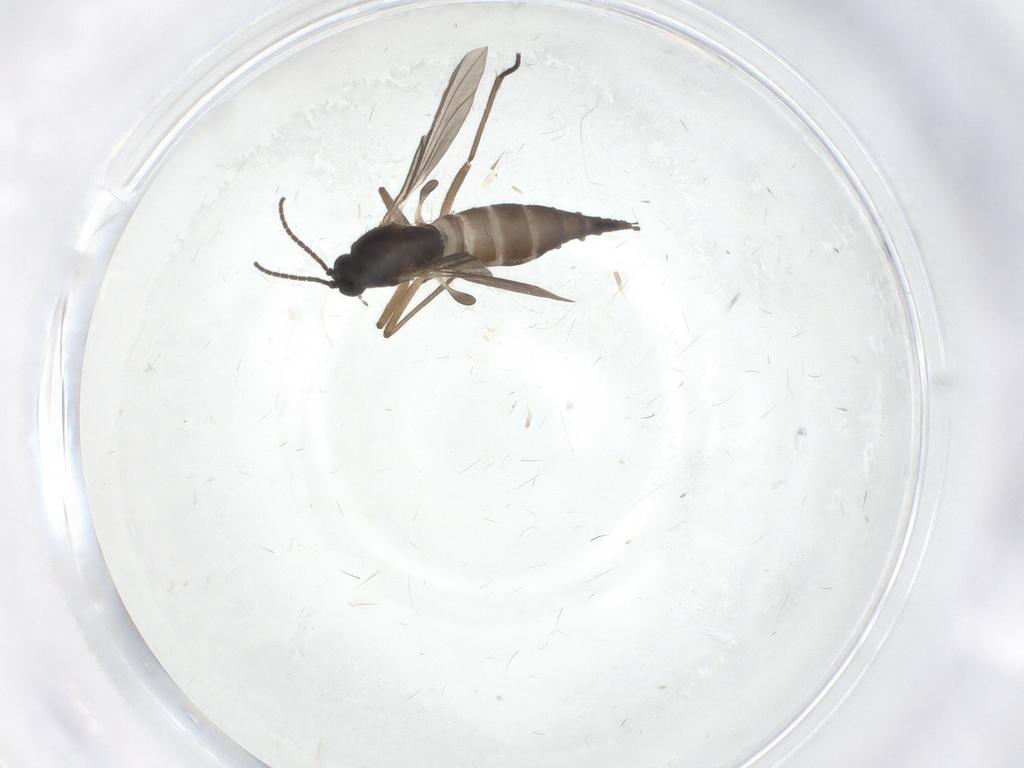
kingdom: Animalia
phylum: Arthropoda
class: Insecta
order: Diptera
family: Sciaridae
